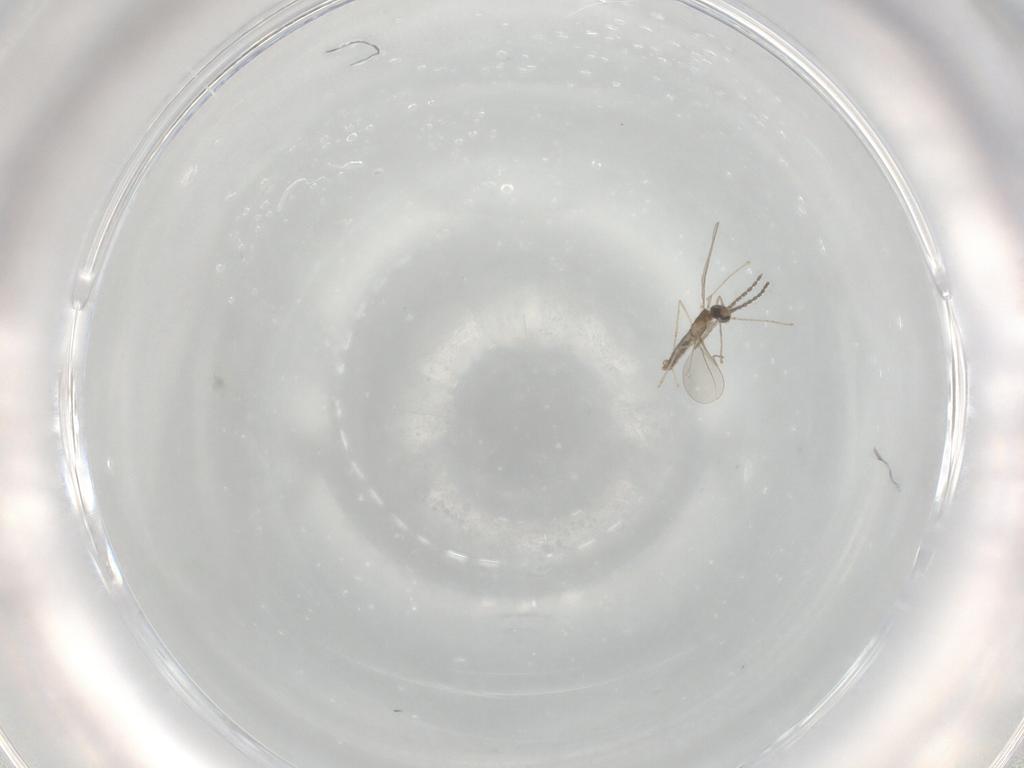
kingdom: Animalia
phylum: Arthropoda
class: Insecta
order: Diptera
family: Cecidomyiidae
